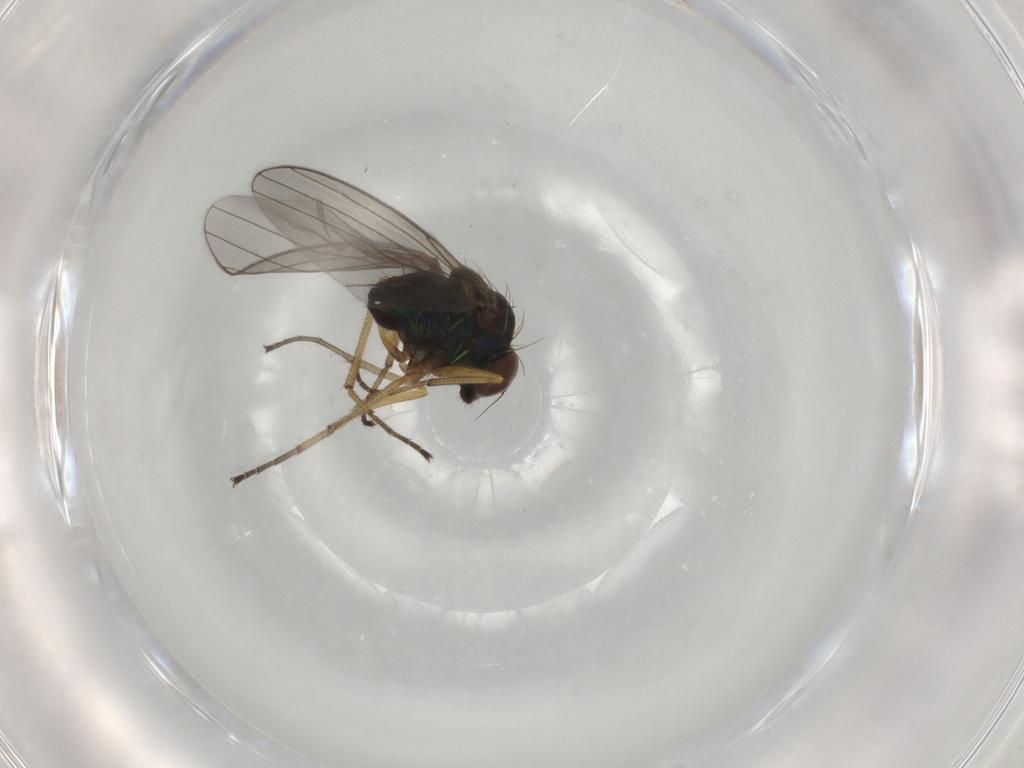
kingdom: Animalia
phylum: Arthropoda
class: Insecta
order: Diptera
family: Dolichopodidae
